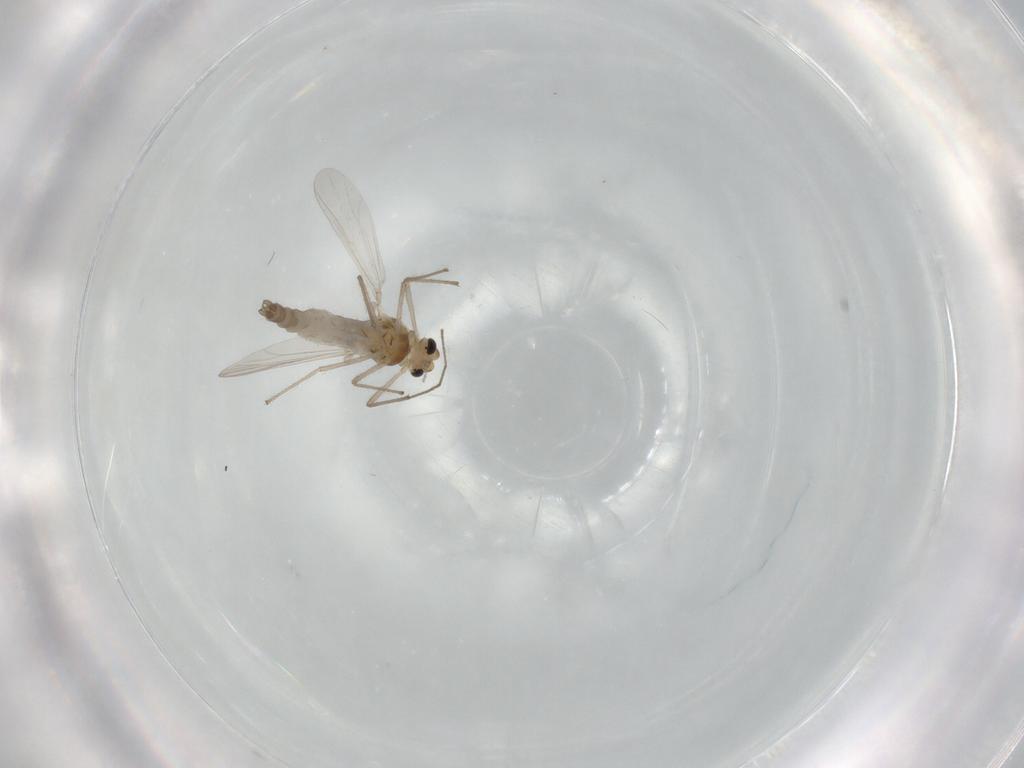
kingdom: Animalia
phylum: Arthropoda
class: Insecta
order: Diptera
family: Chironomidae
